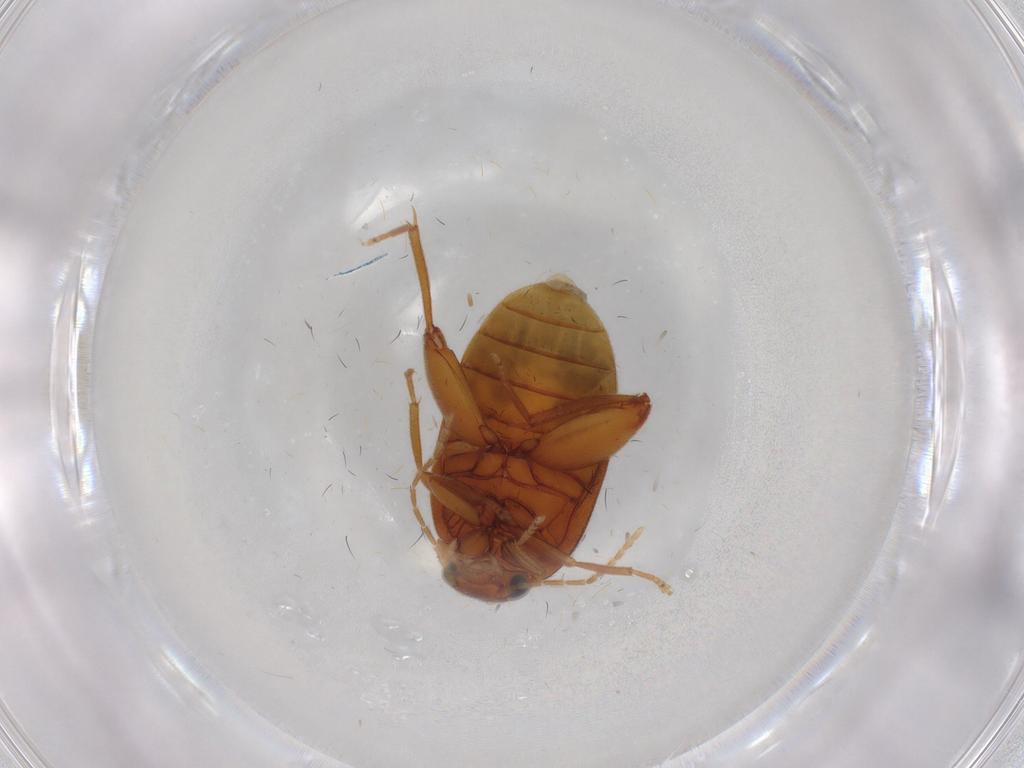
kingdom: Animalia
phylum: Arthropoda
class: Insecta
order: Coleoptera
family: Scirtidae
